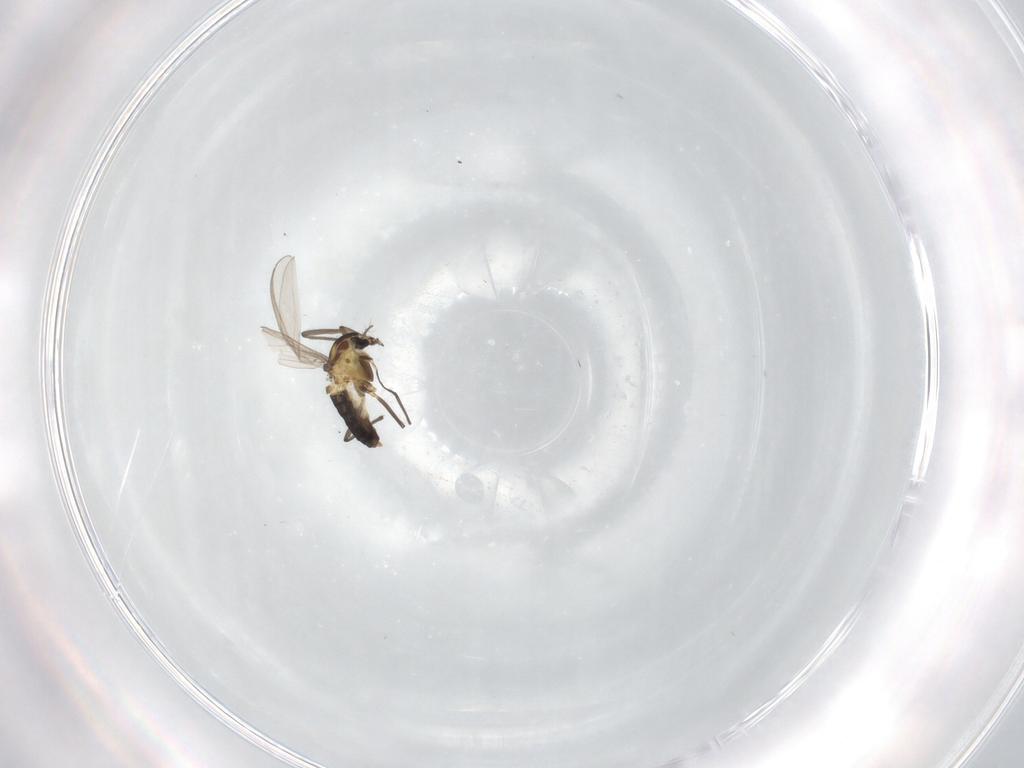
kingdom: Animalia
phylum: Arthropoda
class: Insecta
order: Diptera
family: Chironomidae
